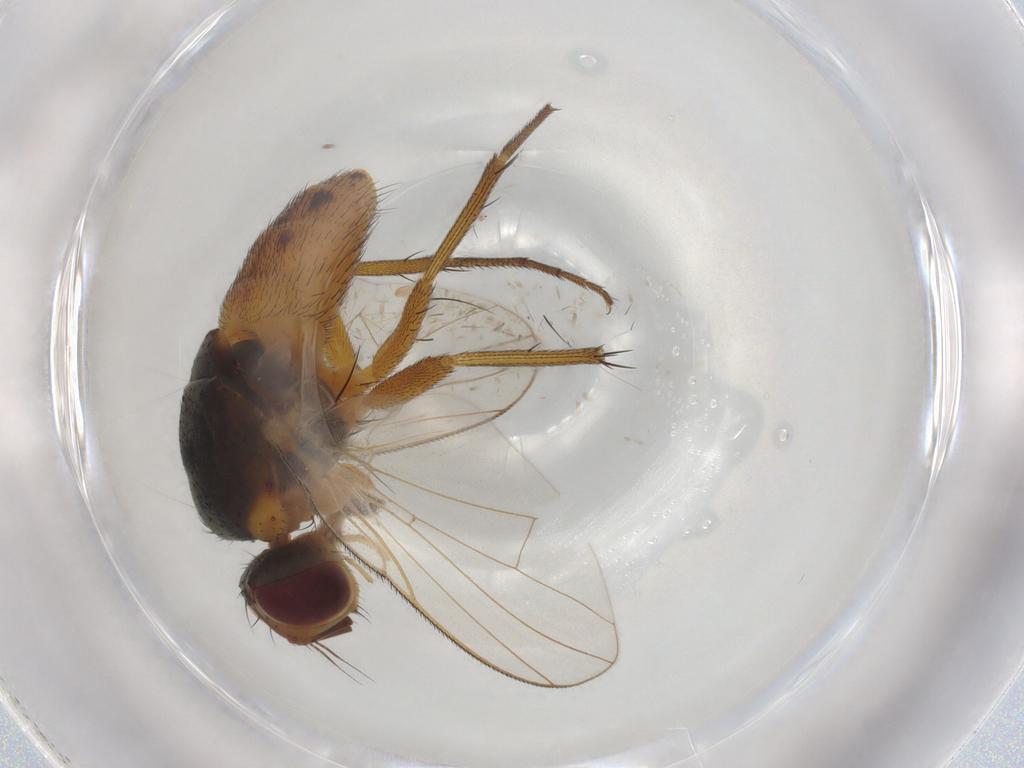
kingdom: Animalia
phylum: Arthropoda
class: Insecta
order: Diptera
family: Muscidae
